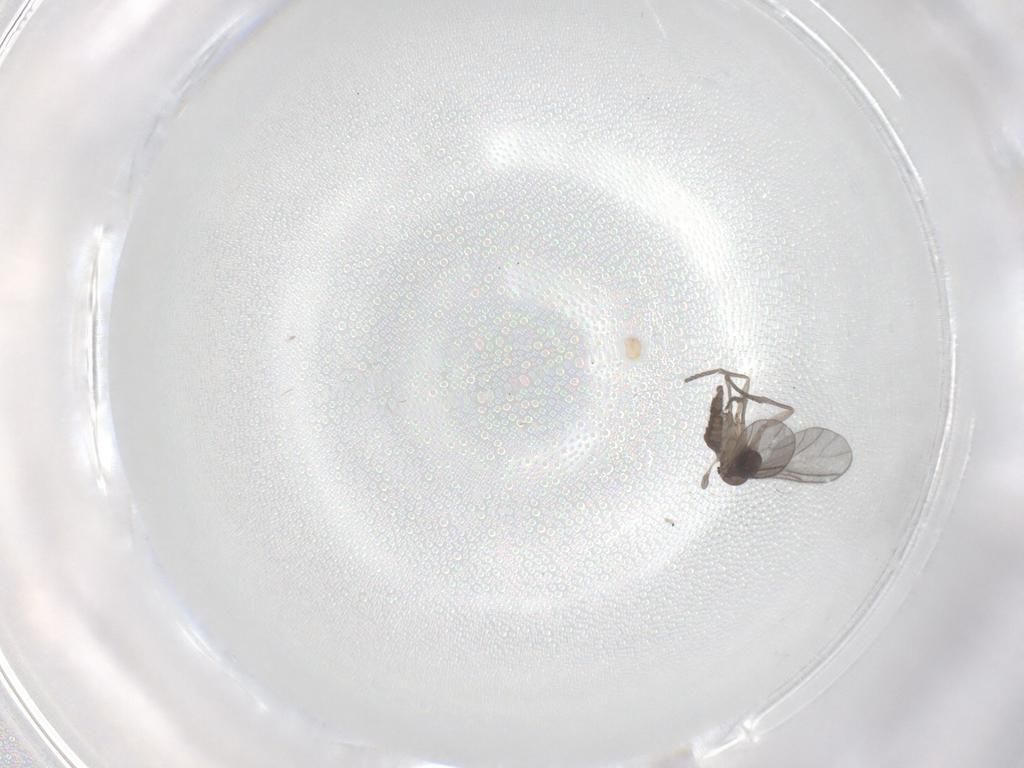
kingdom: Animalia
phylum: Arthropoda
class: Insecta
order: Diptera
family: Sciaridae
